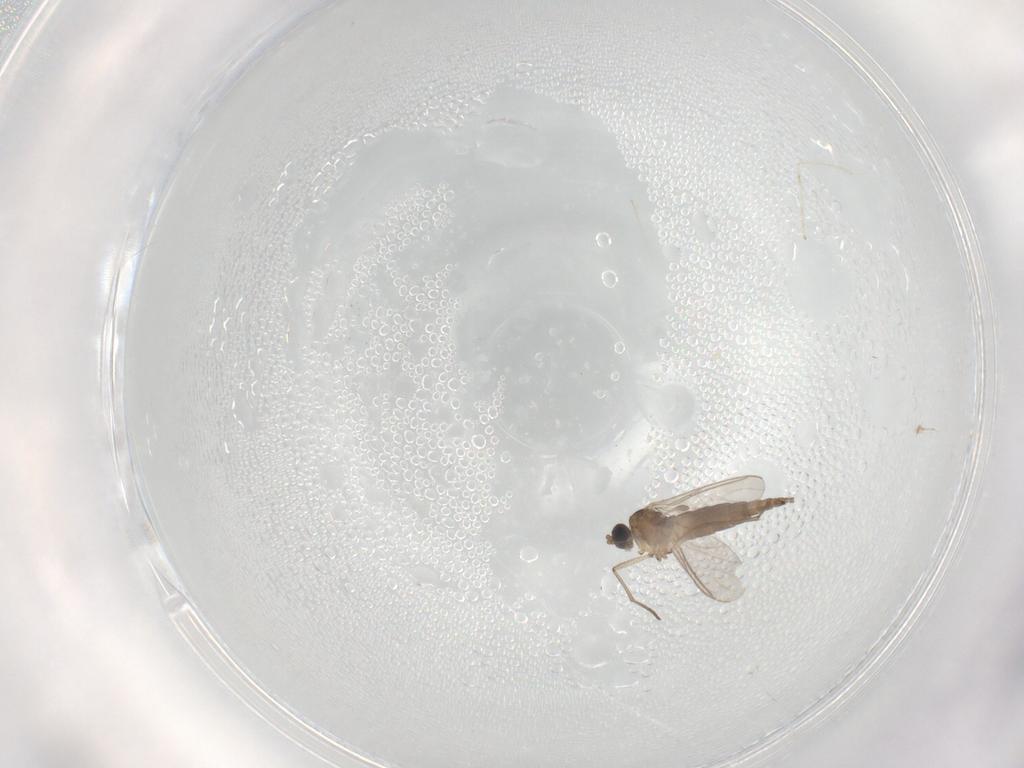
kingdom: Animalia
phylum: Arthropoda
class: Insecta
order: Diptera
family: Sciaridae
